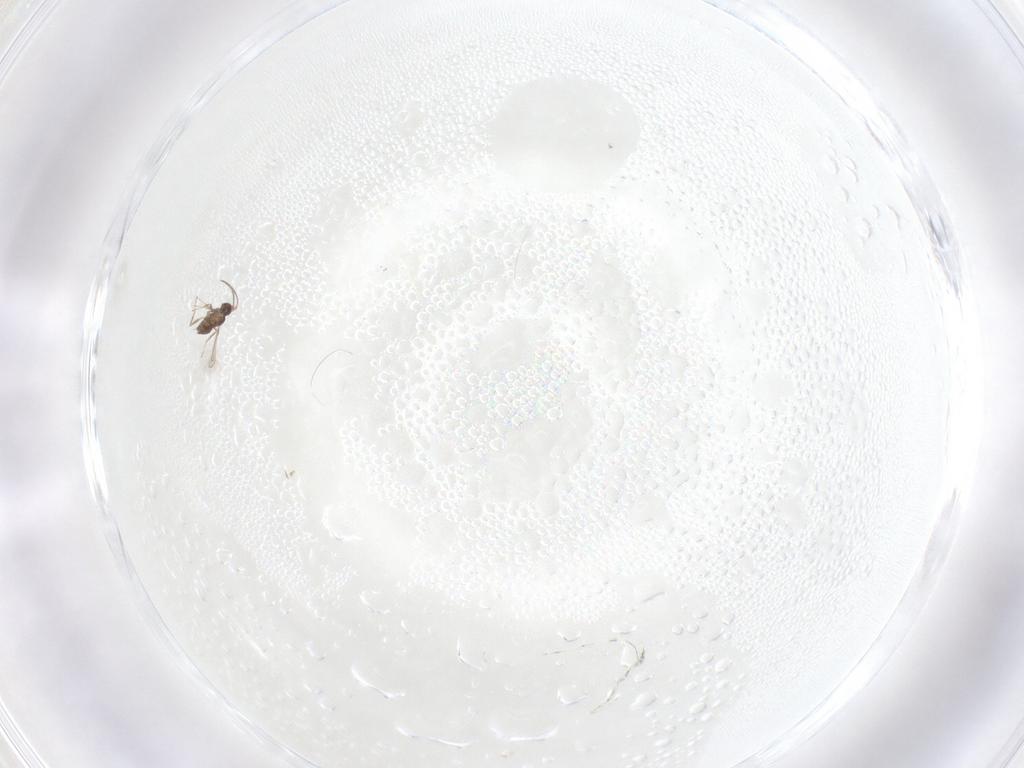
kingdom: Animalia
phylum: Arthropoda
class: Insecta
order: Hymenoptera
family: Mymaridae
